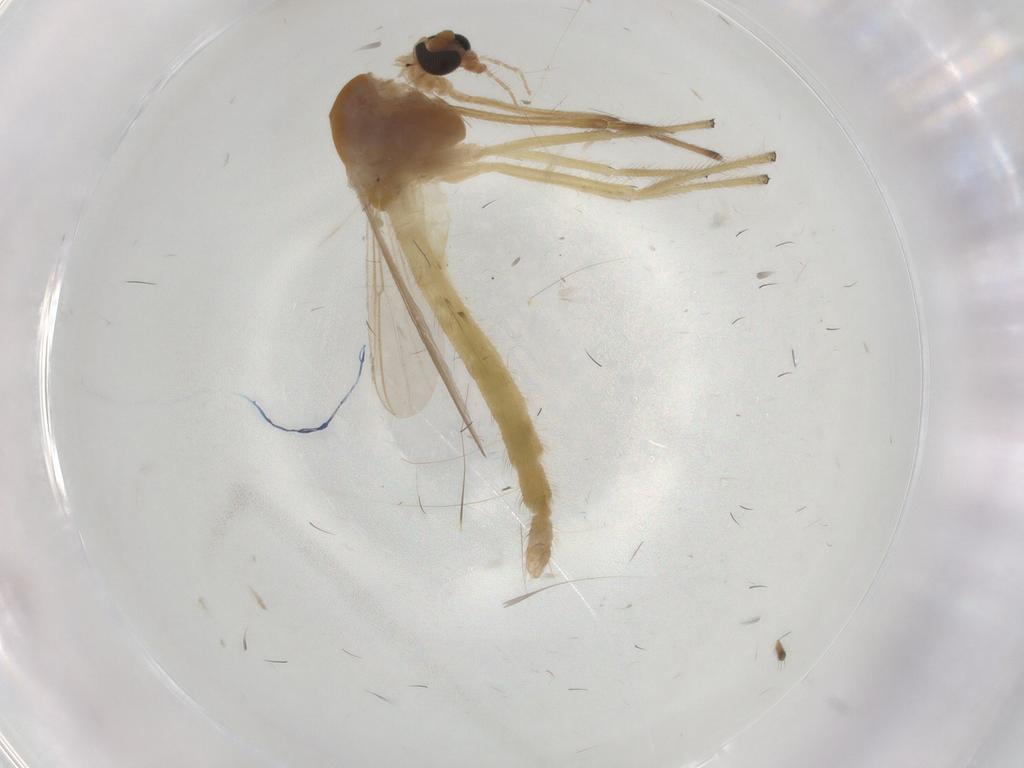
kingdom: Animalia
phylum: Arthropoda
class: Insecta
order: Diptera
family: Chironomidae
